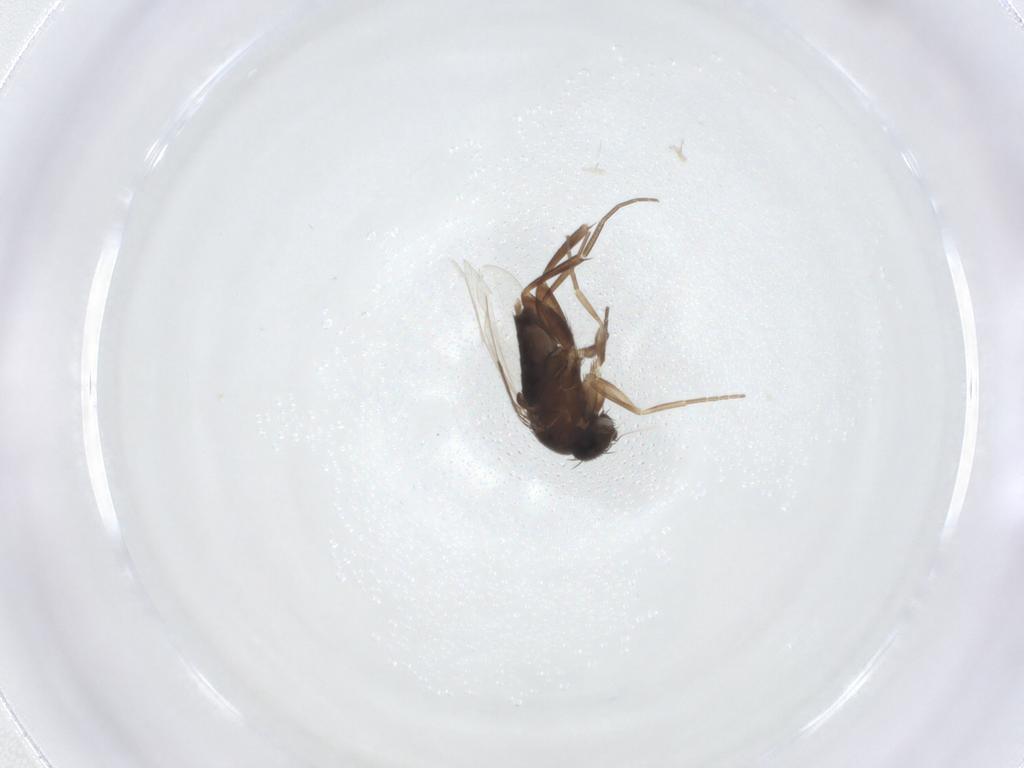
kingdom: Animalia
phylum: Arthropoda
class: Insecta
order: Diptera
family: Phoridae
